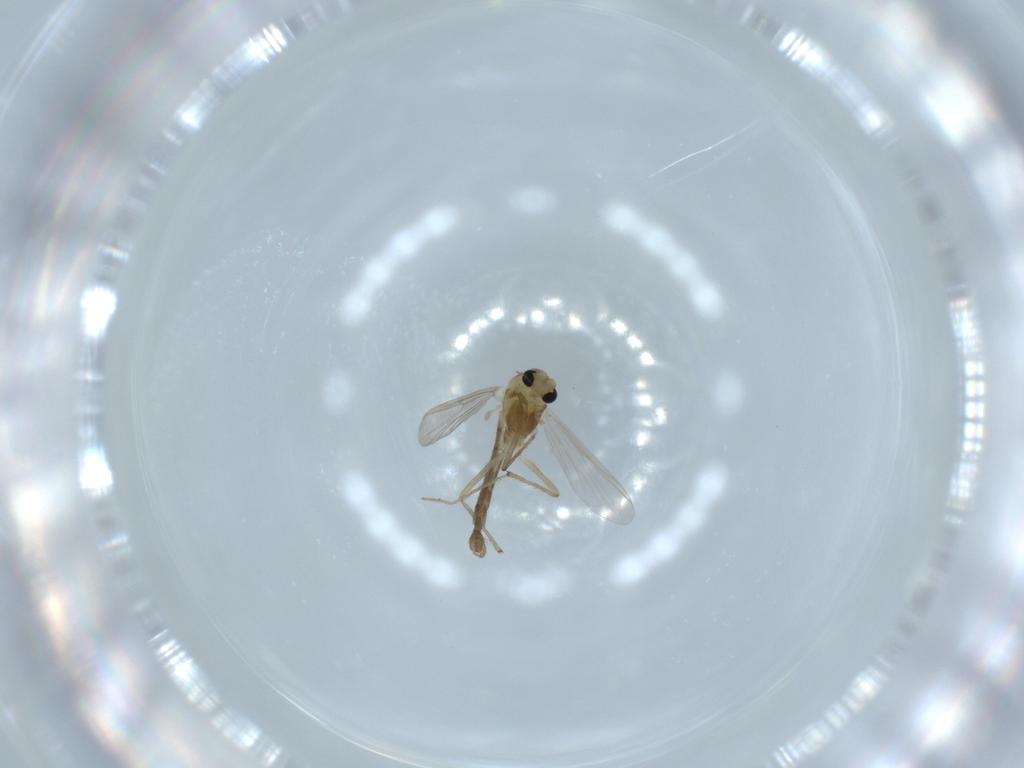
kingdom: Animalia
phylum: Arthropoda
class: Insecta
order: Diptera
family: Chironomidae
